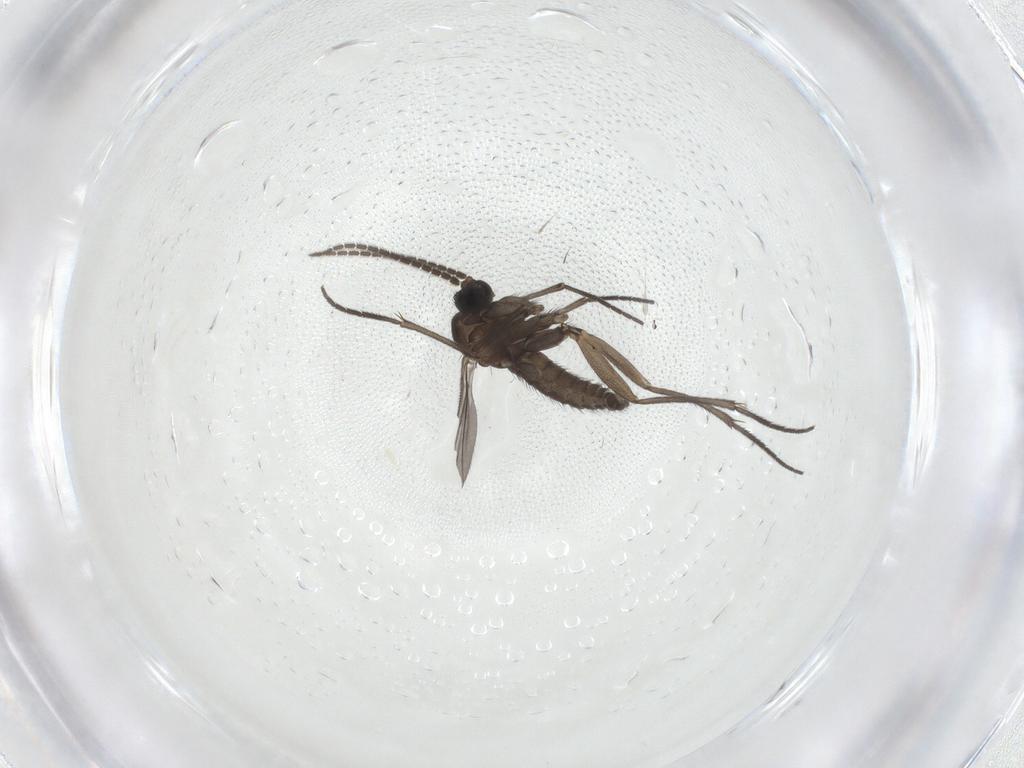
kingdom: Animalia
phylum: Arthropoda
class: Insecta
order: Diptera
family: Sciaridae
